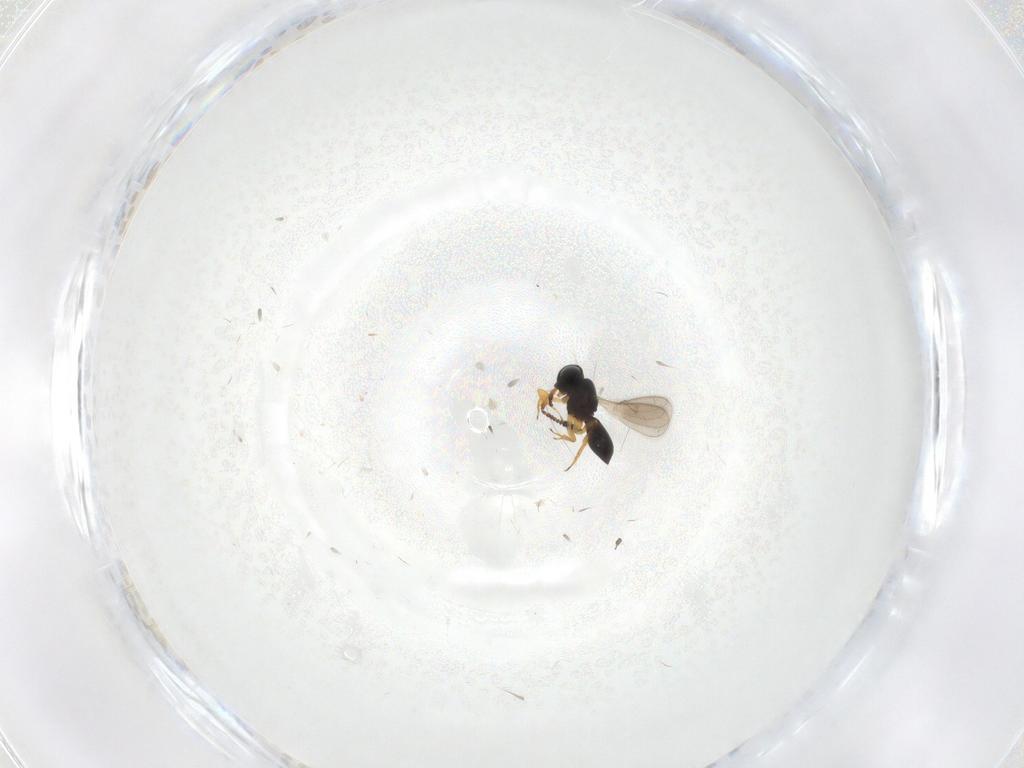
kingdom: Animalia
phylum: Arthropoda
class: Insecta
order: Hymenoptera
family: Scelionidae
